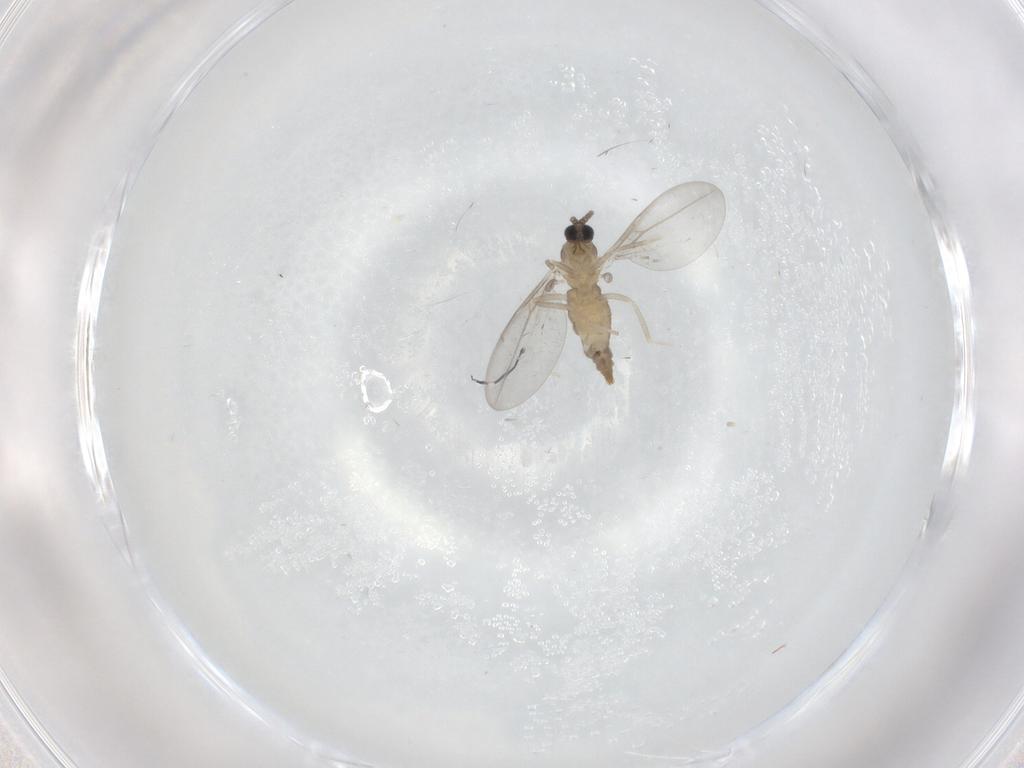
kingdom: Animalia
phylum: Arthropoda
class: Insecta
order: Diptera
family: Cecidomyiidae
